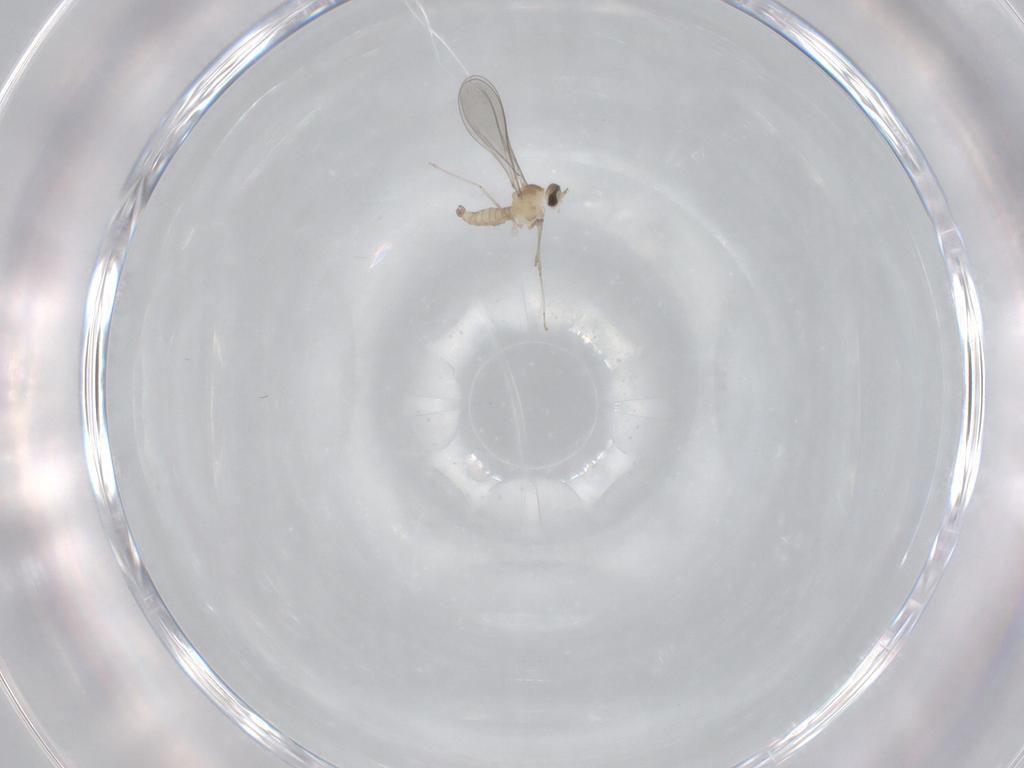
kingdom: Animalia
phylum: Arthropoda
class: Insecta
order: Diptera
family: Cecidomyiidae
